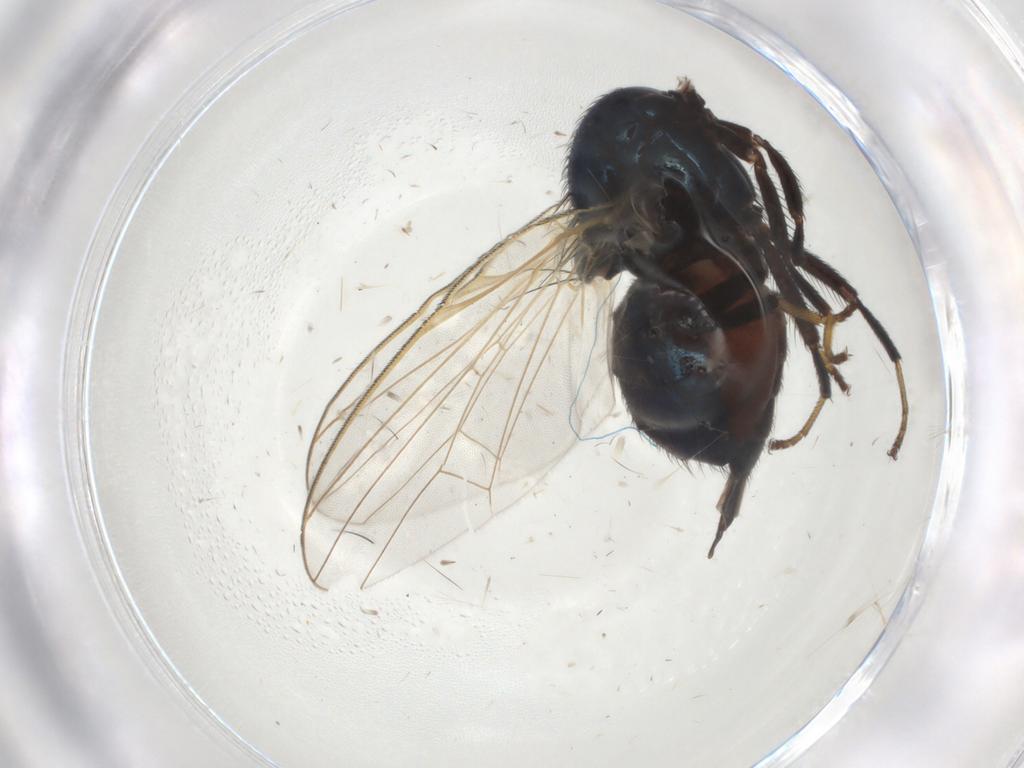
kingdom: Animalia
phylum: Arthropoda
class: Insecta
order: Diptera
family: Lonchaeidae
